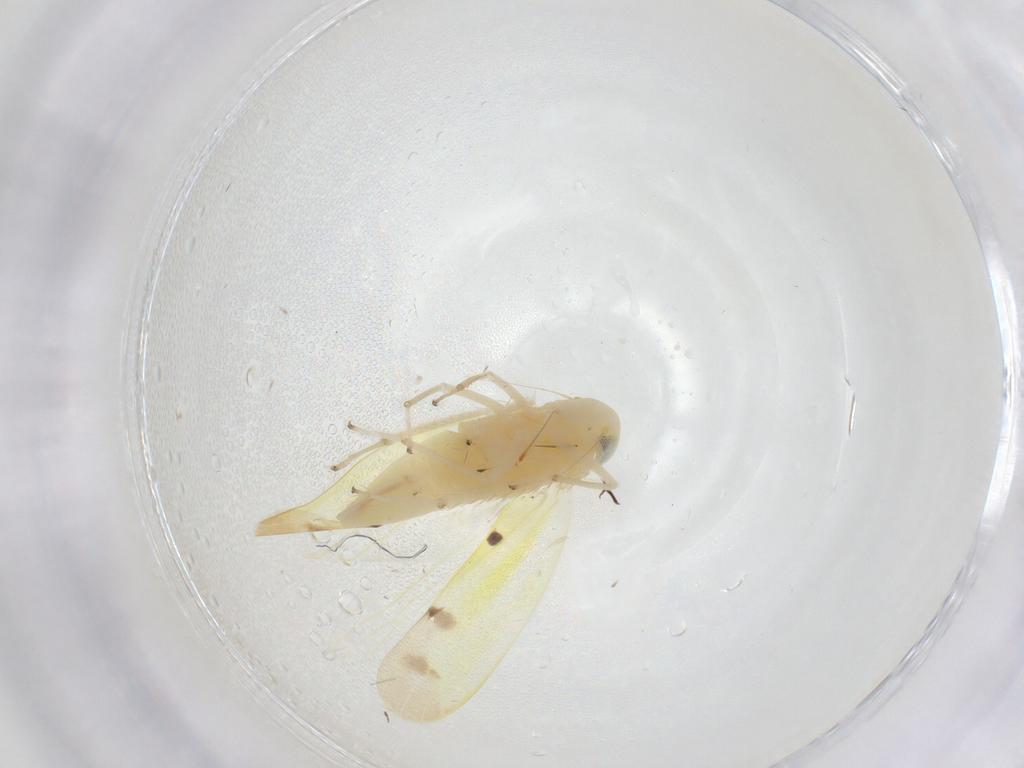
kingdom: Animalia
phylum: Arthropoda
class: Insecta
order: Hemiptera
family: Cicadellidae
